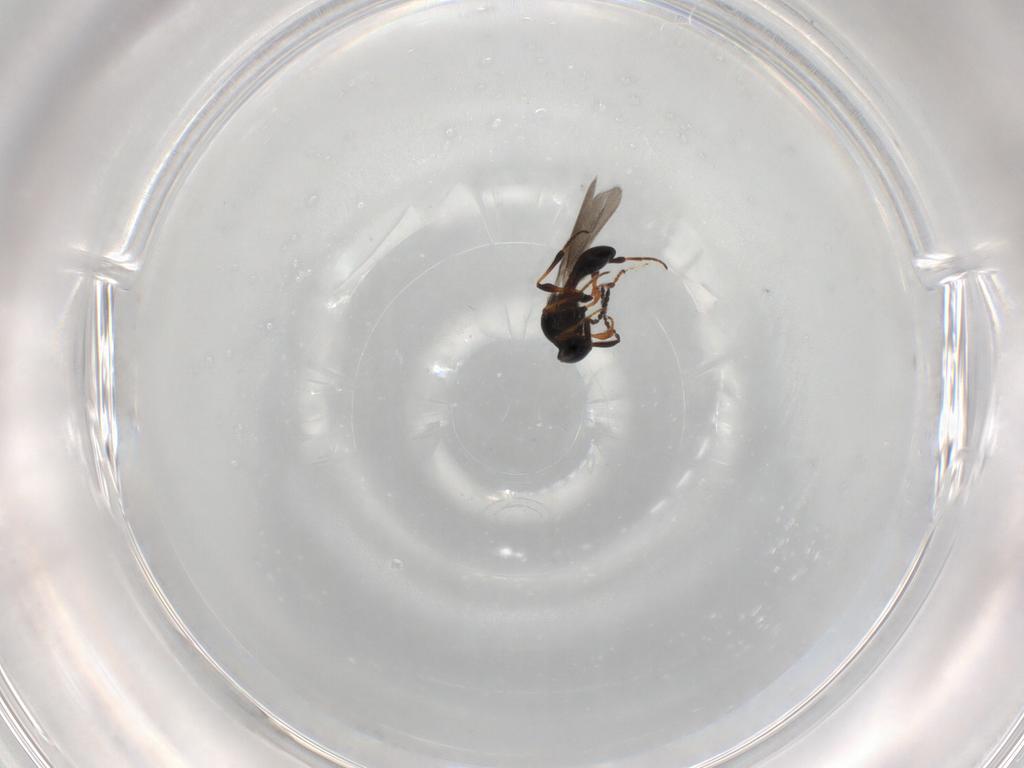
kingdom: Animalia
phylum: Arthropoda
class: Insecta
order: Hymenoptera
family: Platygastridae
